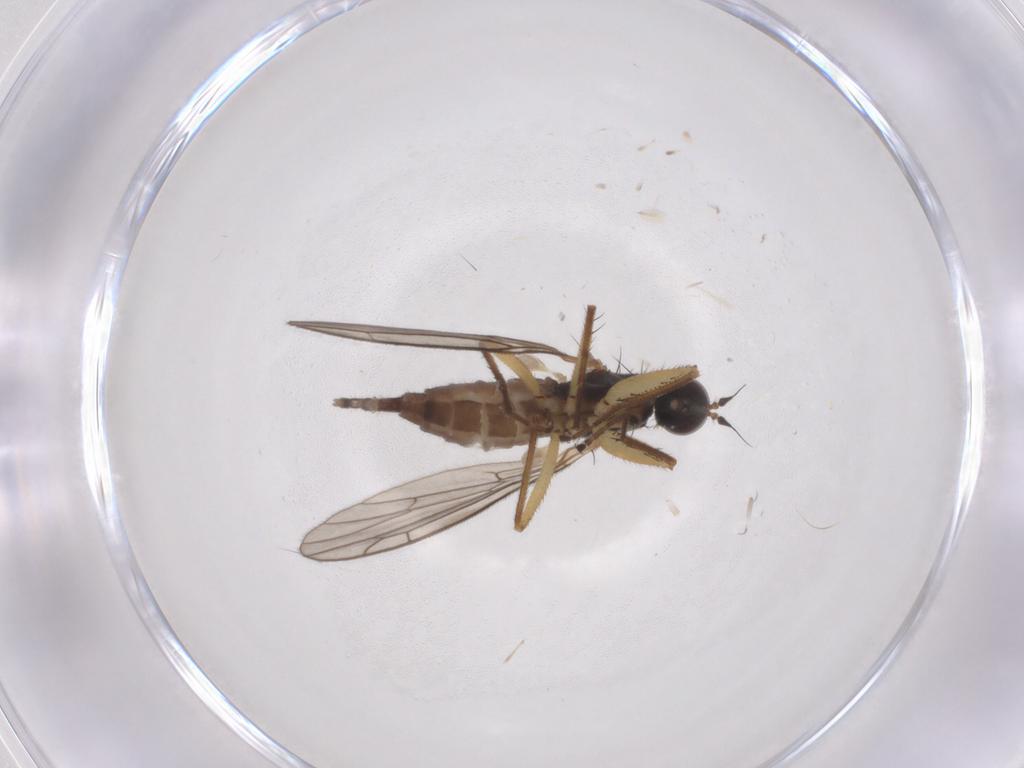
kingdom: Animalia
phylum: Arthropoda
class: Insecta
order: Diptera
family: Empididae
